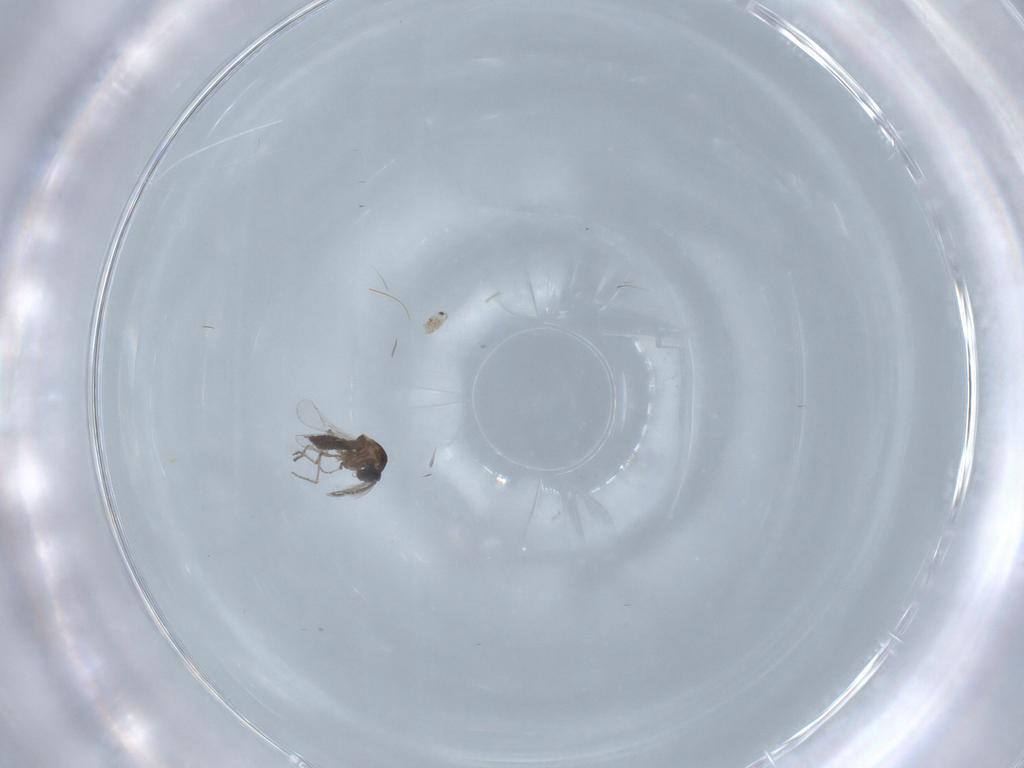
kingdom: Animalia
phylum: Arthropoda
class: Insecta
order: Diptera
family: Ceratopogonidae
